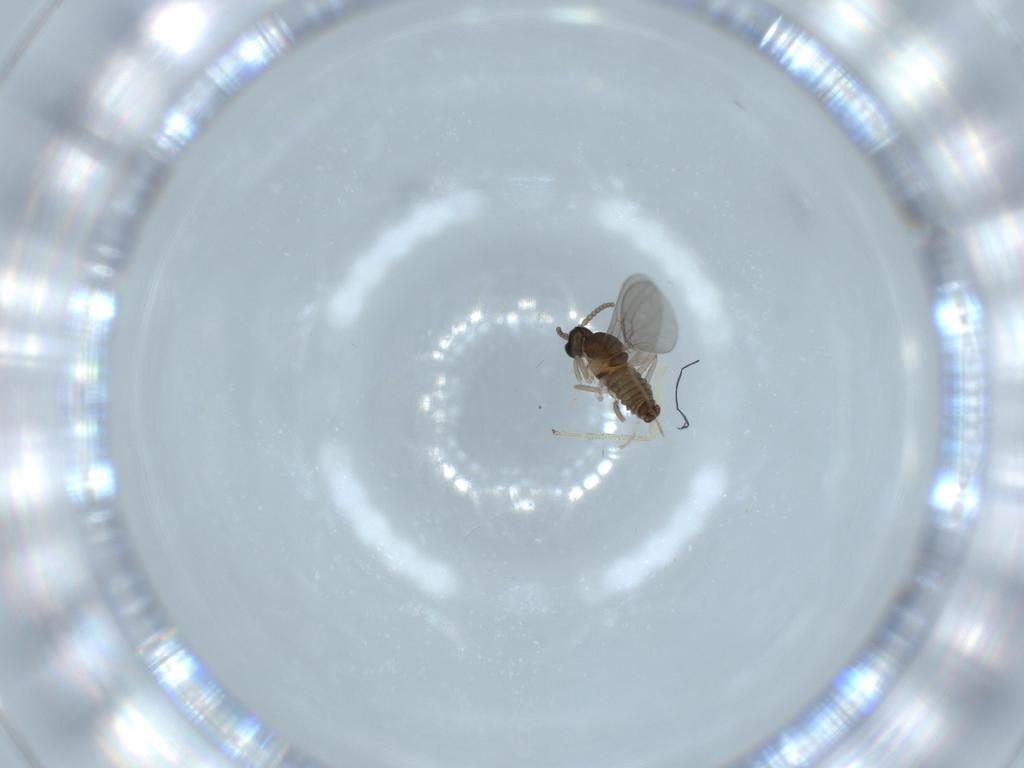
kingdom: Animalia
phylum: Arthropoda
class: Insecta
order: Diptera
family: Cecidomyiidae
